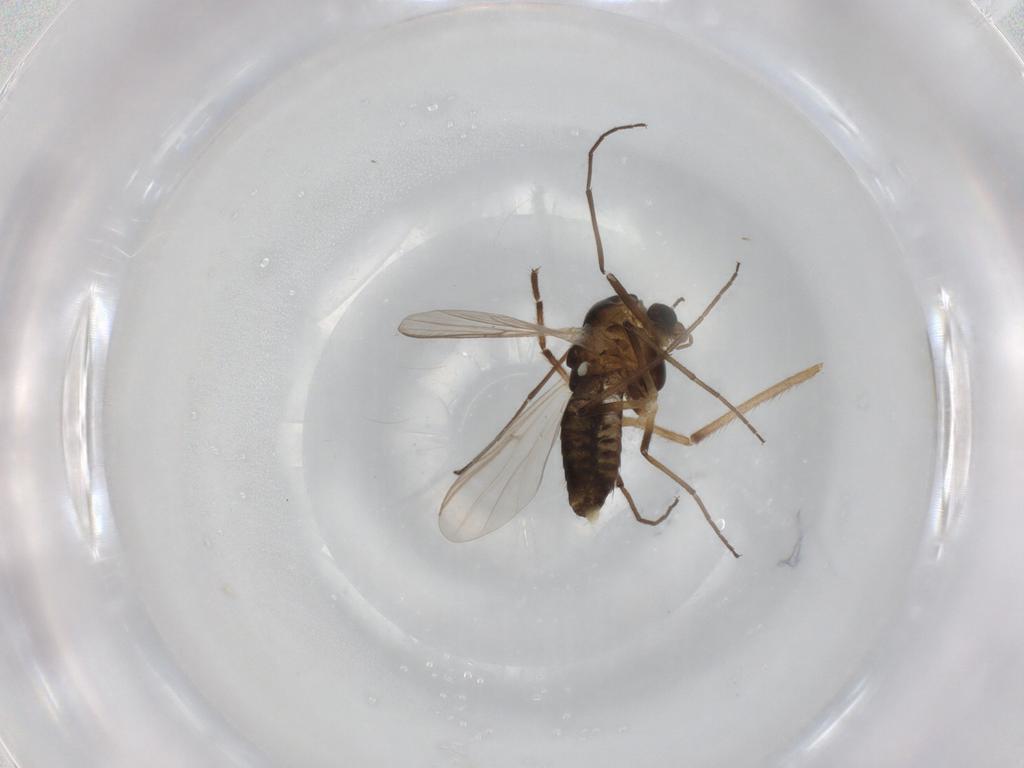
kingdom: Animalia
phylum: Arthropoda
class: Insecta
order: Diptera
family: Chironomidae
